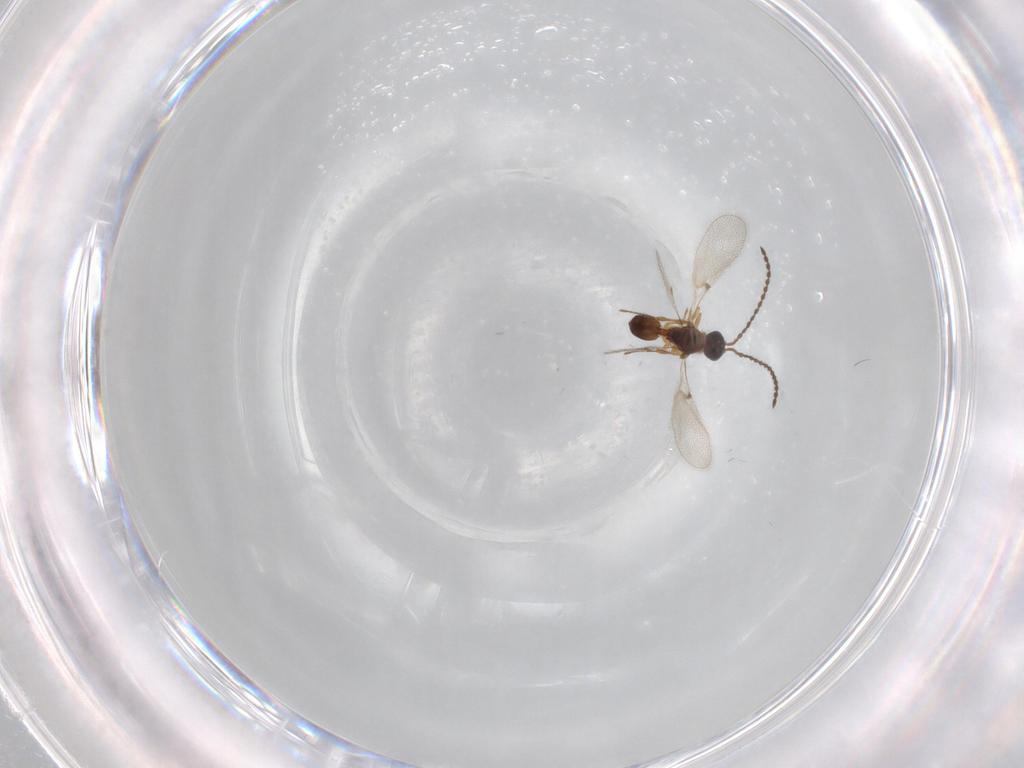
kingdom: Animalia
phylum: Arthropoda
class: Insecta
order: Hymenoptera
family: Diapriidae
